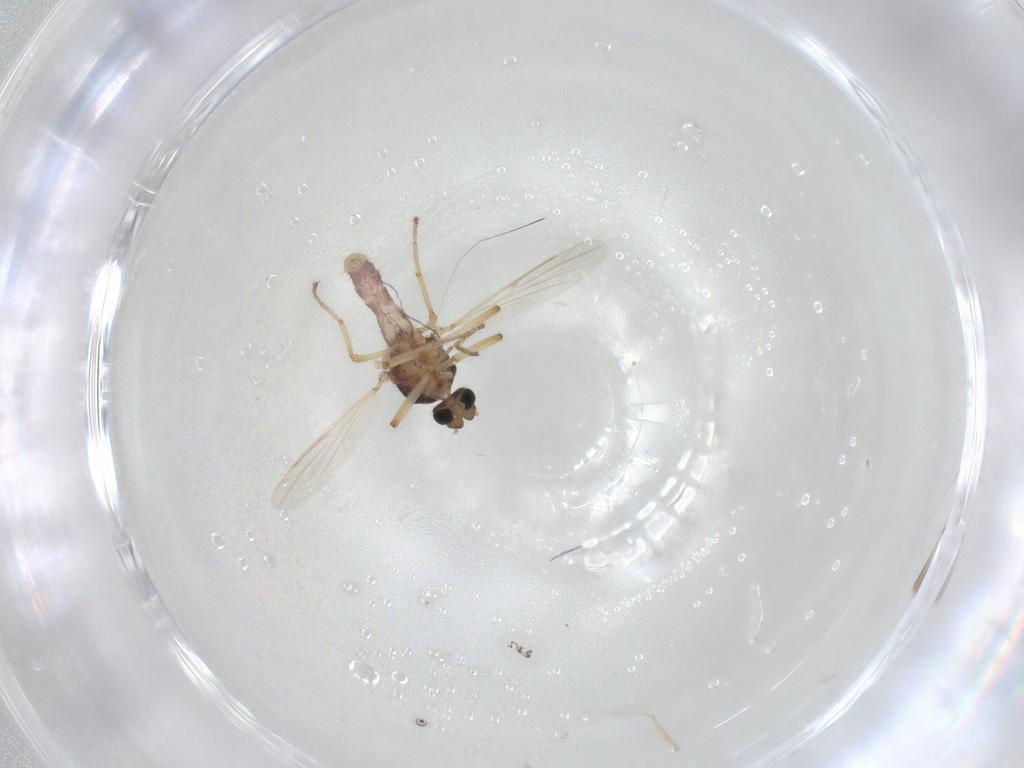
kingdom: Animalia
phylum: Arthropoda
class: Insecta
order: Diptera
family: Ceratopogonidae
